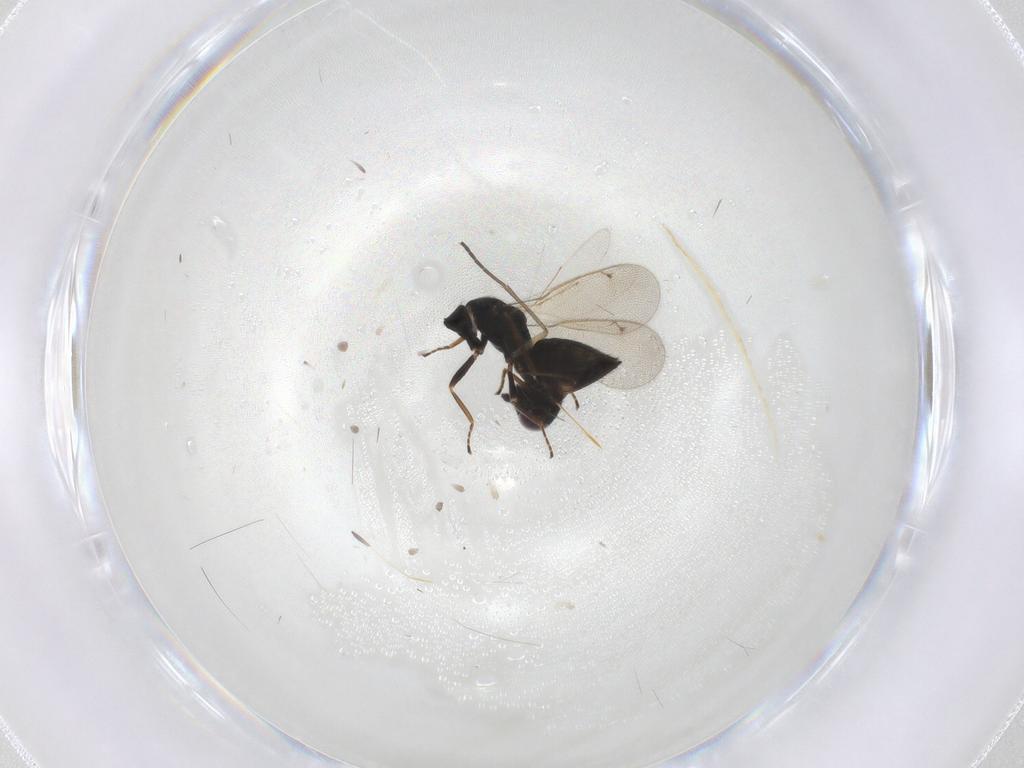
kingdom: Animalia
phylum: Arthropoda
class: Insecta
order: Hymenoptera
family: Eulophidae
